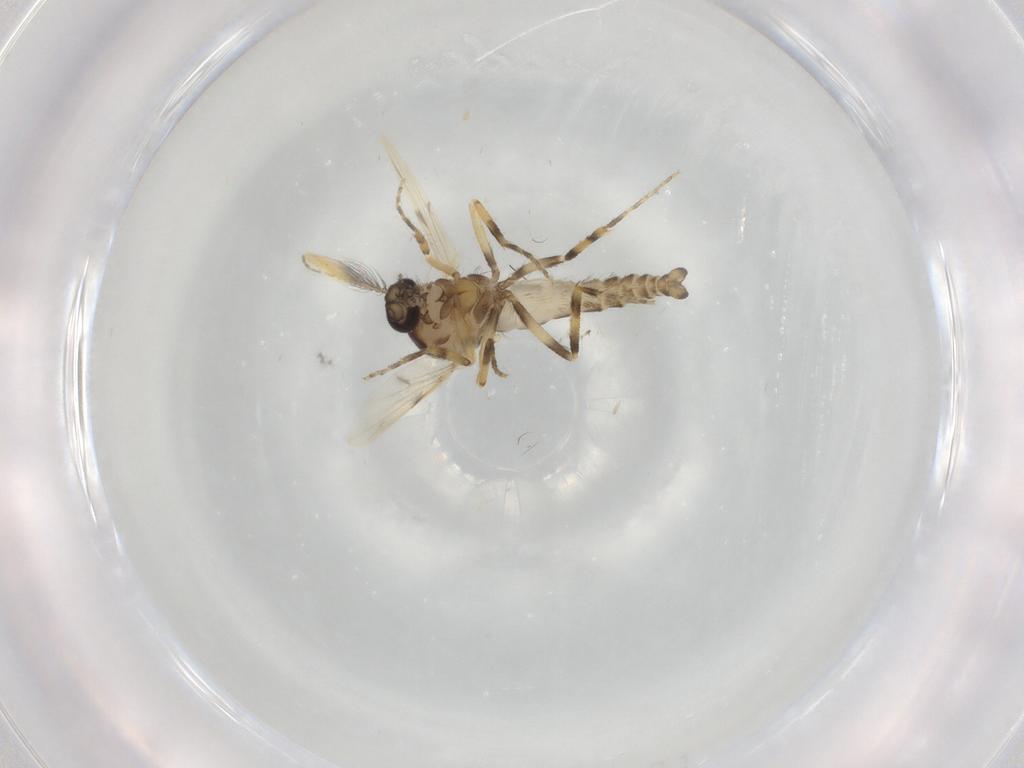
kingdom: Animalia
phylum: Arthropoda
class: Insecta
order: Diptera
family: Ceratopogonidae
